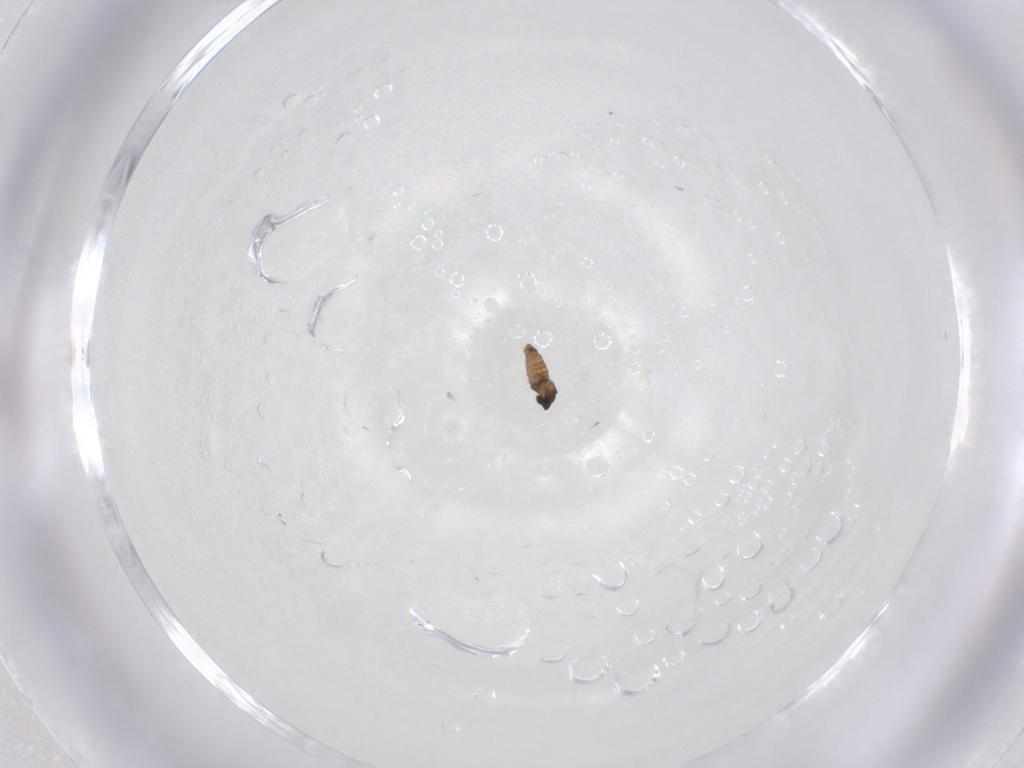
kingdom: Animalia
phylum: Arthropoda
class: Insecta
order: Diptera
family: Cecidomyiidae
